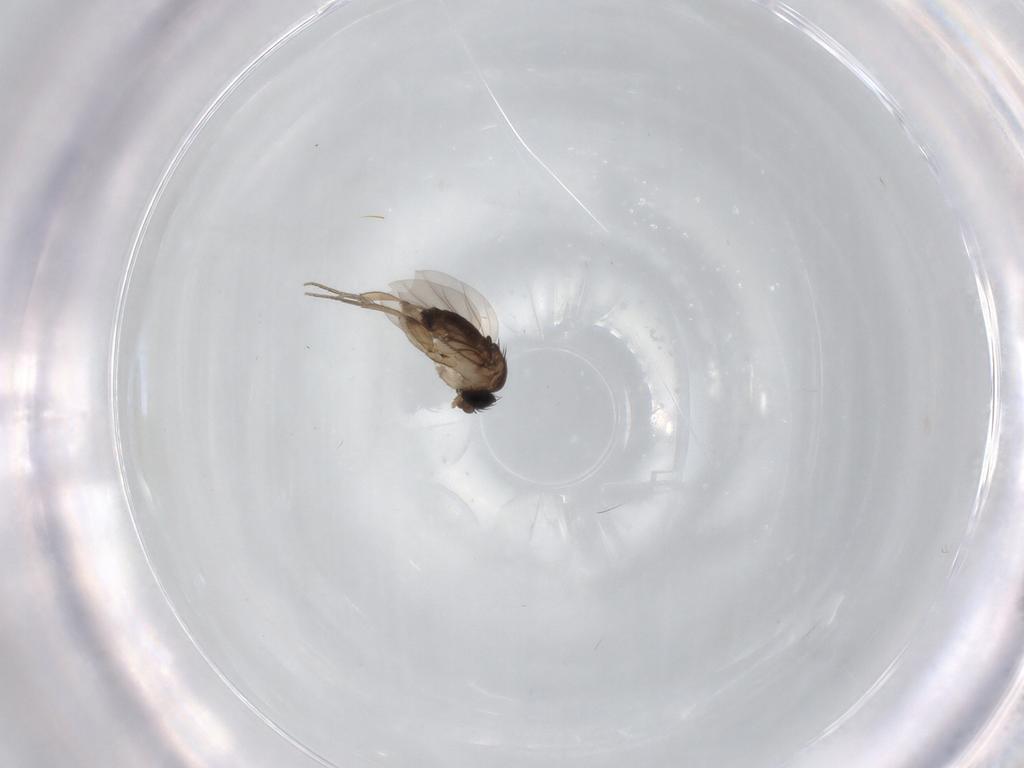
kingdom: Animalia
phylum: Arthropoda
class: Insecta
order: Diptera
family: Phoridae
